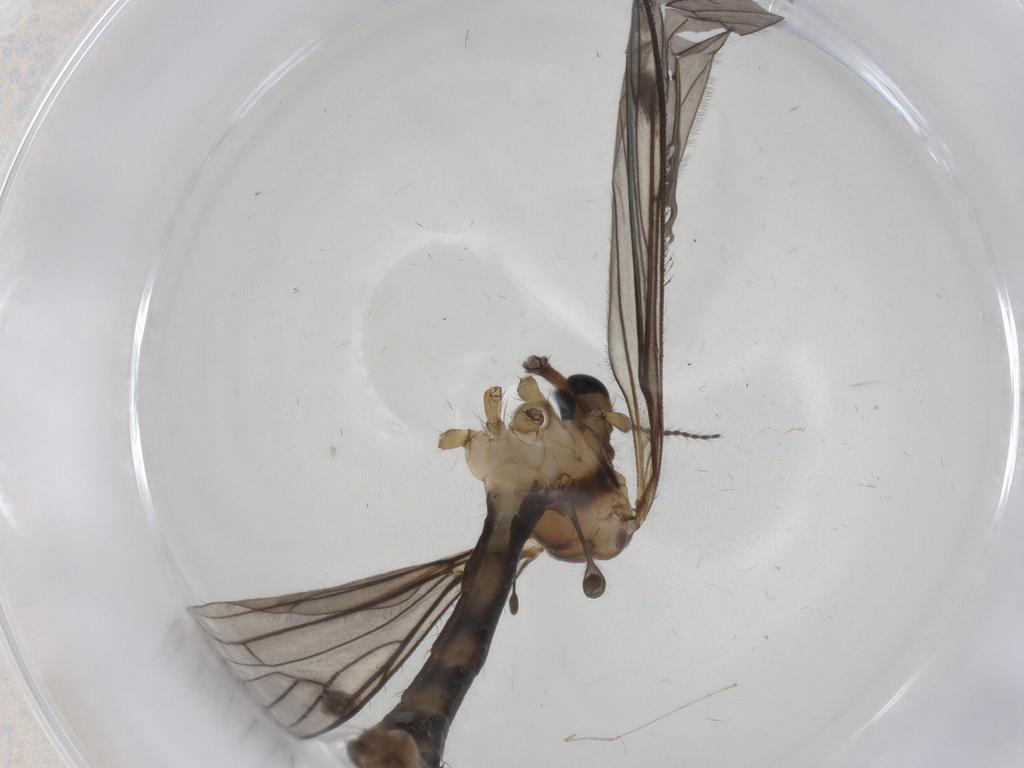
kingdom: Animalia
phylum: Arthropoda
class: Insecta
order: Diptera
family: Limoniidae
